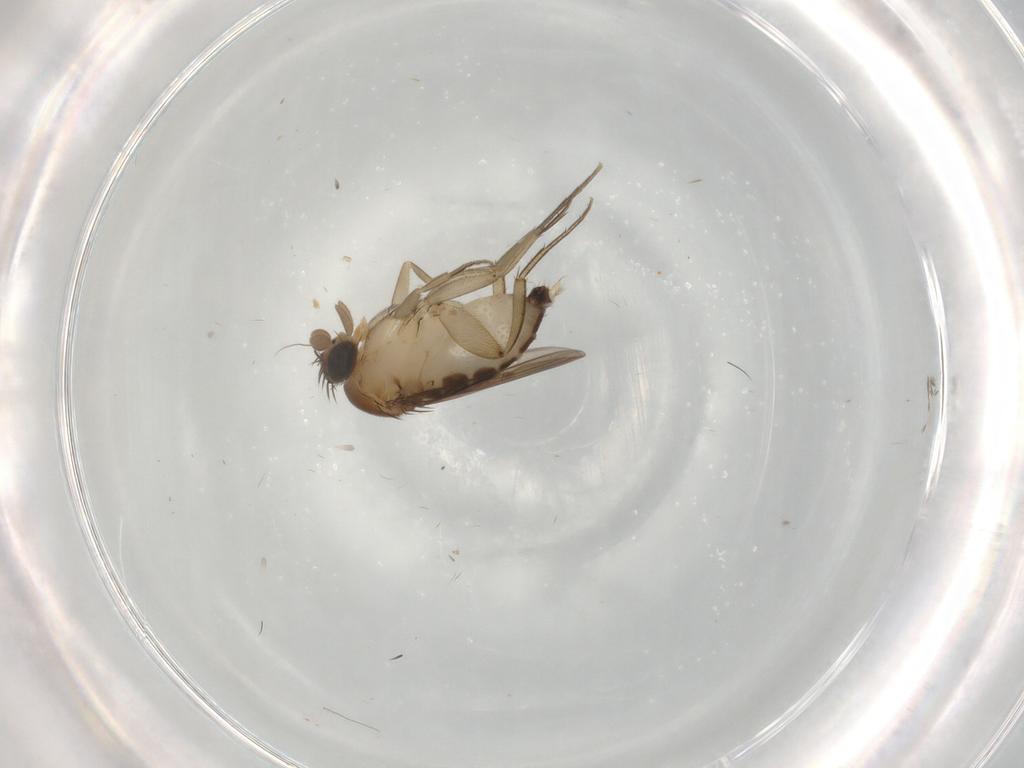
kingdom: Animalia
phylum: Arthropoda
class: Insecta
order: Diptera
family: Phoridae
